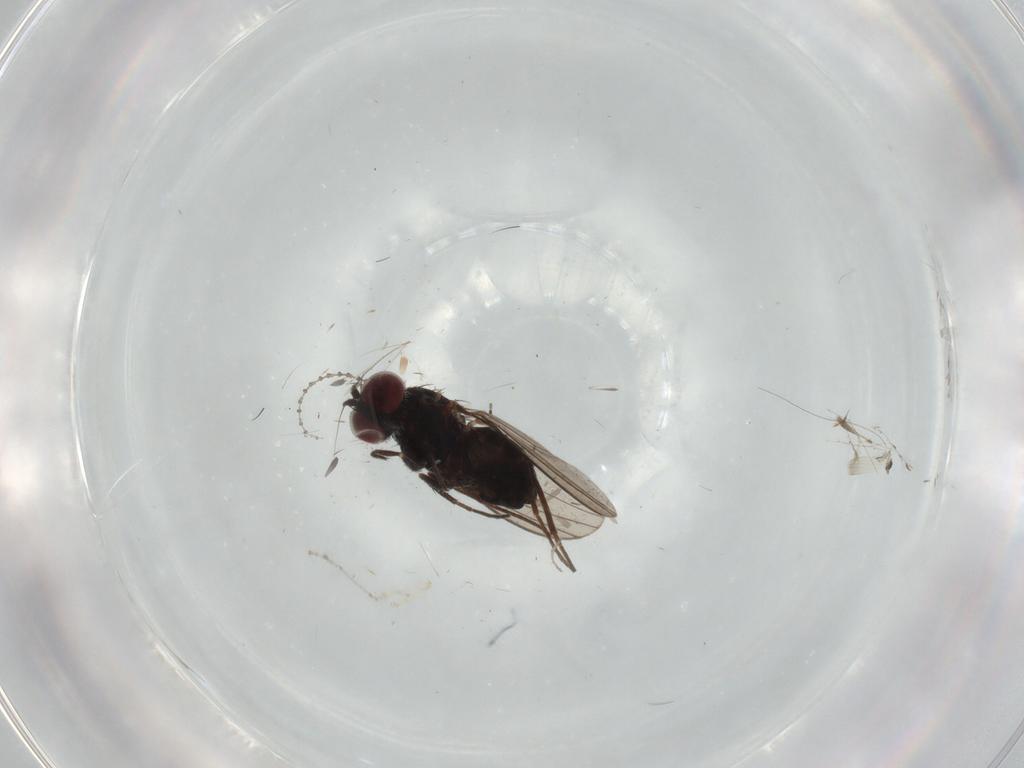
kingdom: Animalia
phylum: Arthropoda
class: Insecta
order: Diptera
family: Cecidomyiidae
